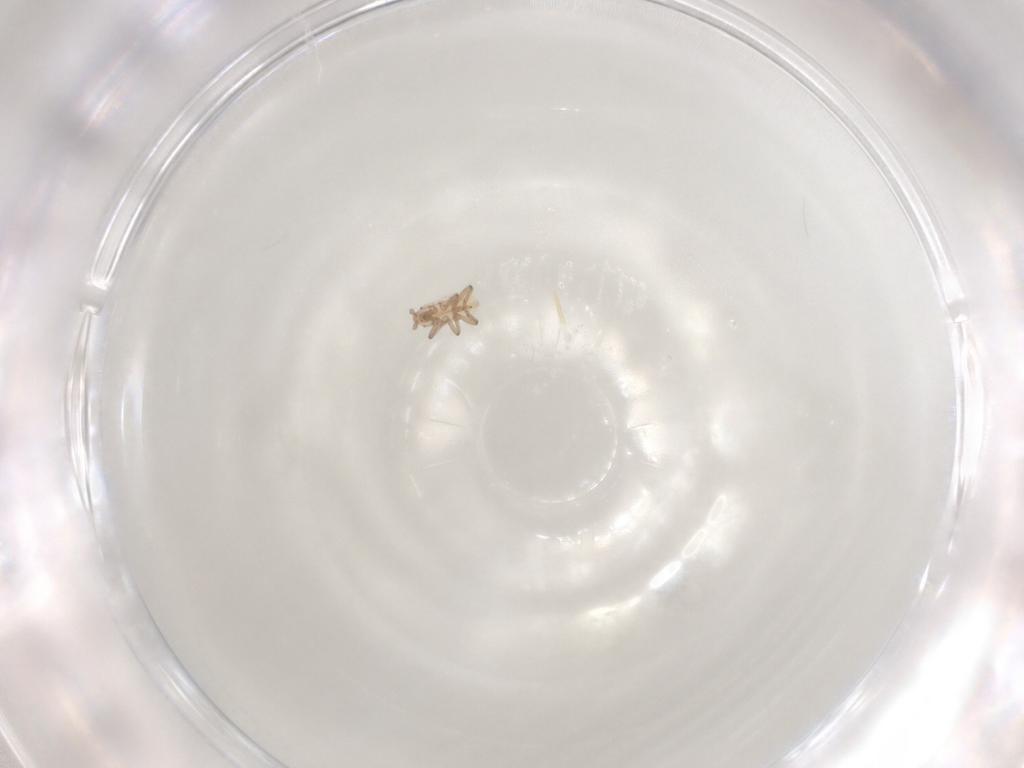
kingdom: Animalia
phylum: Arthropoda
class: Insecta
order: Hemiptera
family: Aphididae
